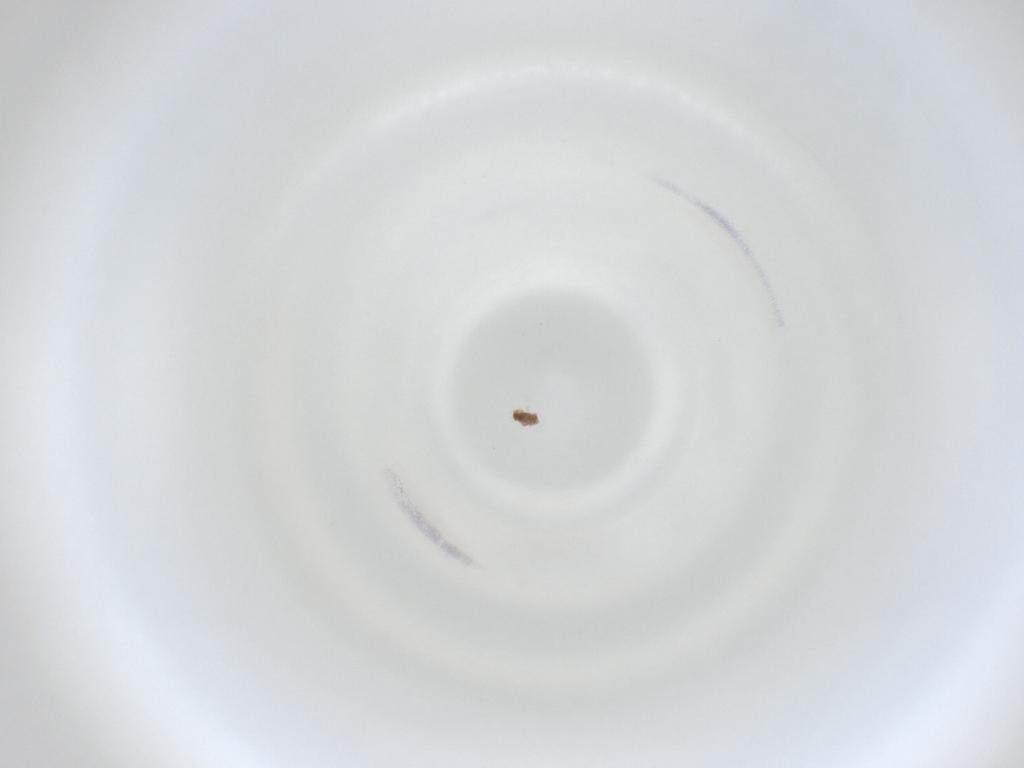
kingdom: Animalia
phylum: Arthropoda
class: Insecta
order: Diptera
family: Cecidomyiidae
